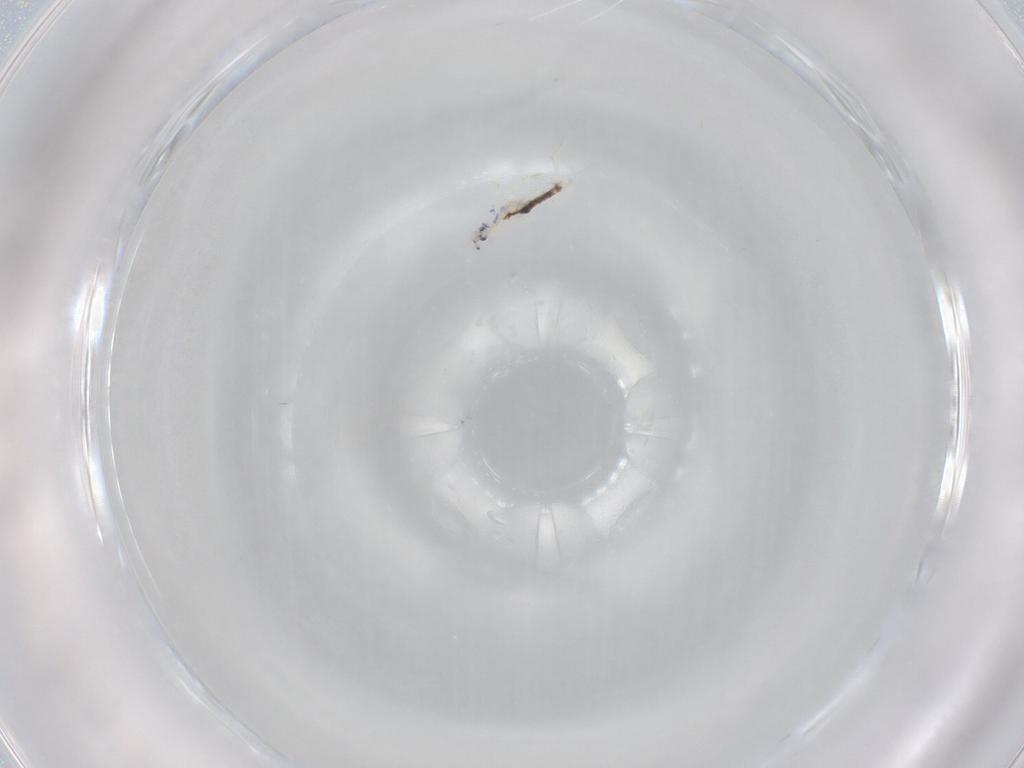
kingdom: Animalia
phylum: Arthropoda
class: Collembola
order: Entomobryomorpha
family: Entomobryidae
